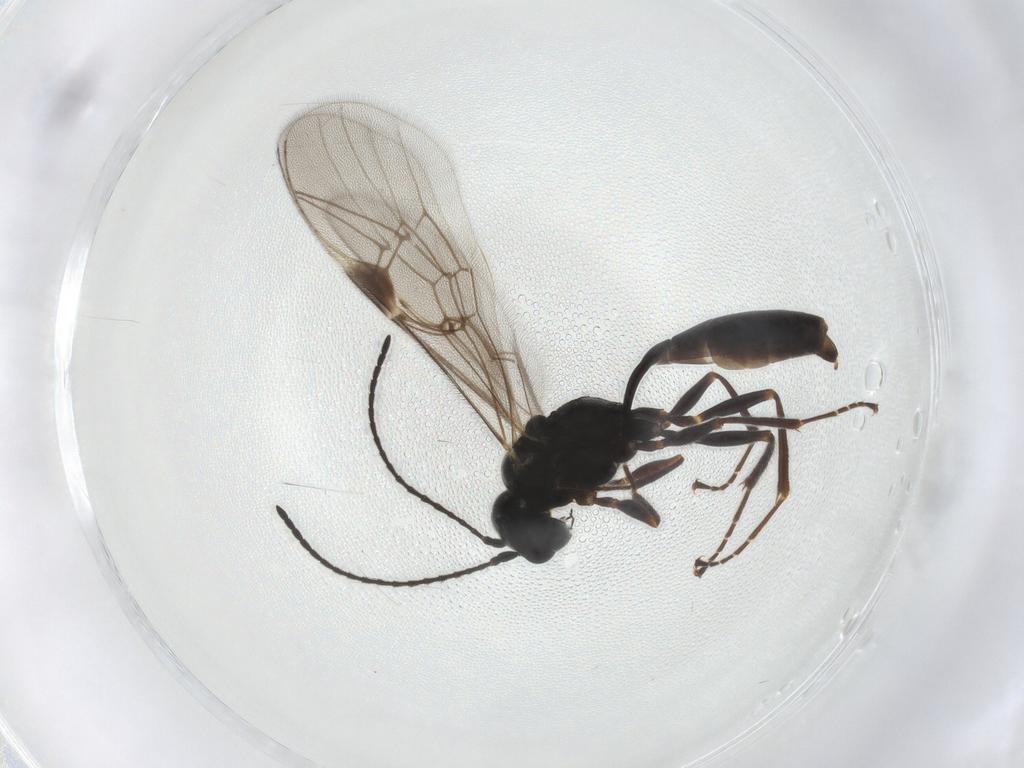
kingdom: Animalia
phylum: Arthropoda
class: Insecta
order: Hymenoptera
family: Ichneumonidae
